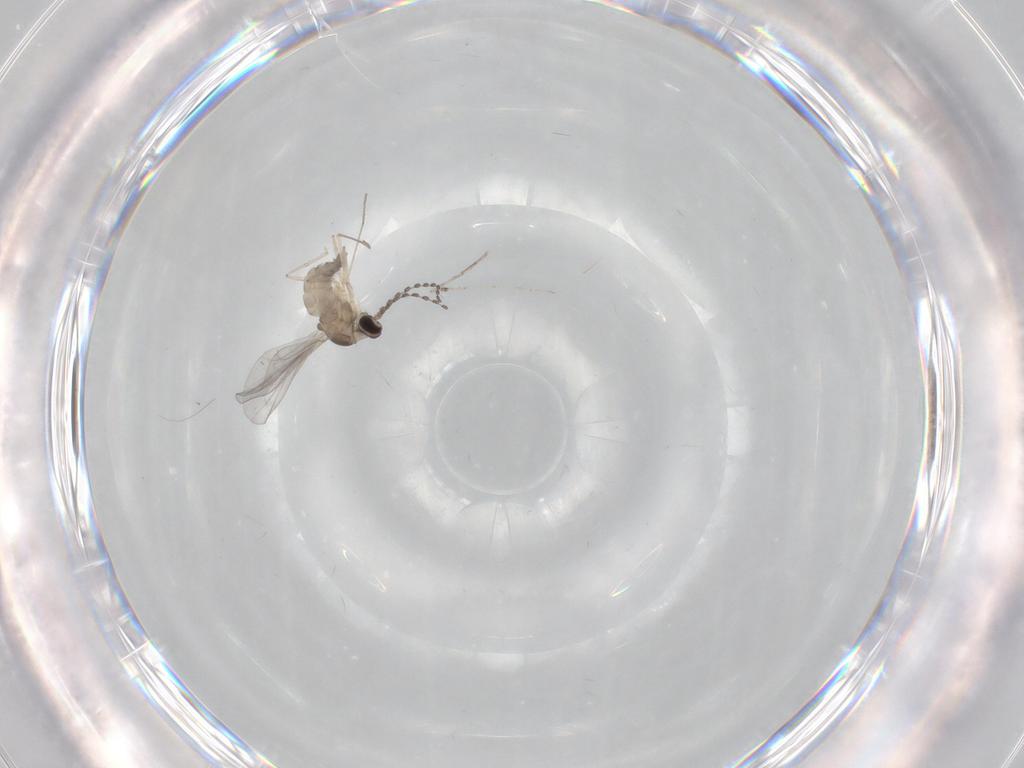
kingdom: Animalia
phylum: Arthropoda
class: Insecta
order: Diptera
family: Cecidomyiidae
